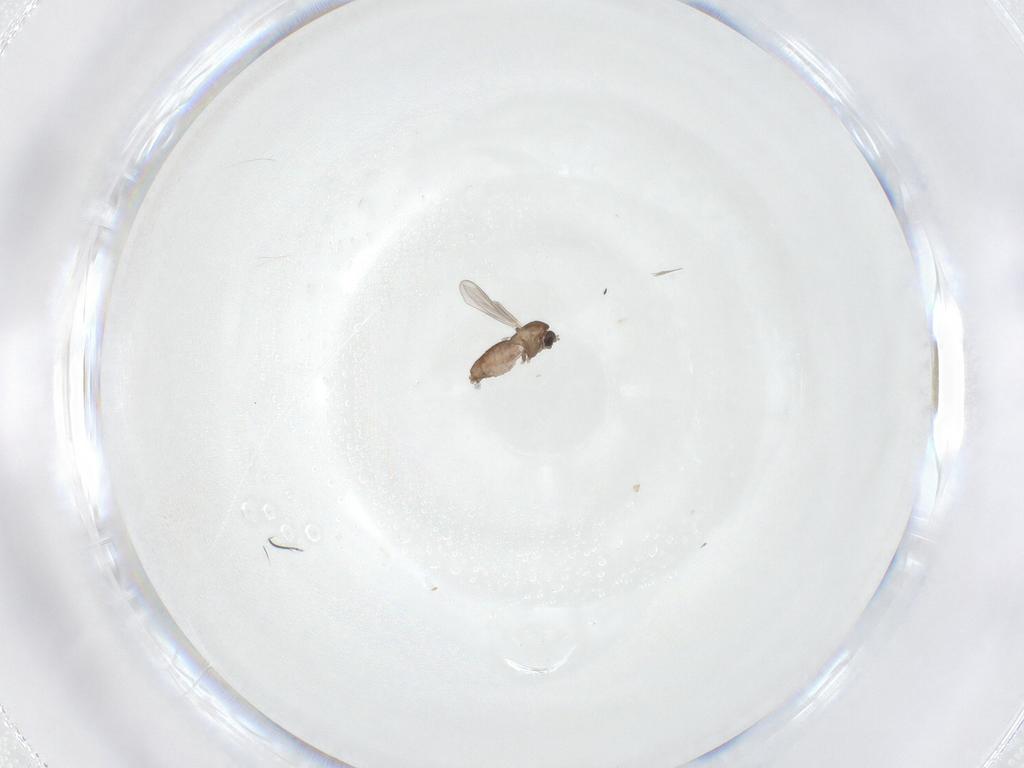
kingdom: Animalia
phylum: Arthropoda
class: Insecta
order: Diptera
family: Chironomidae
